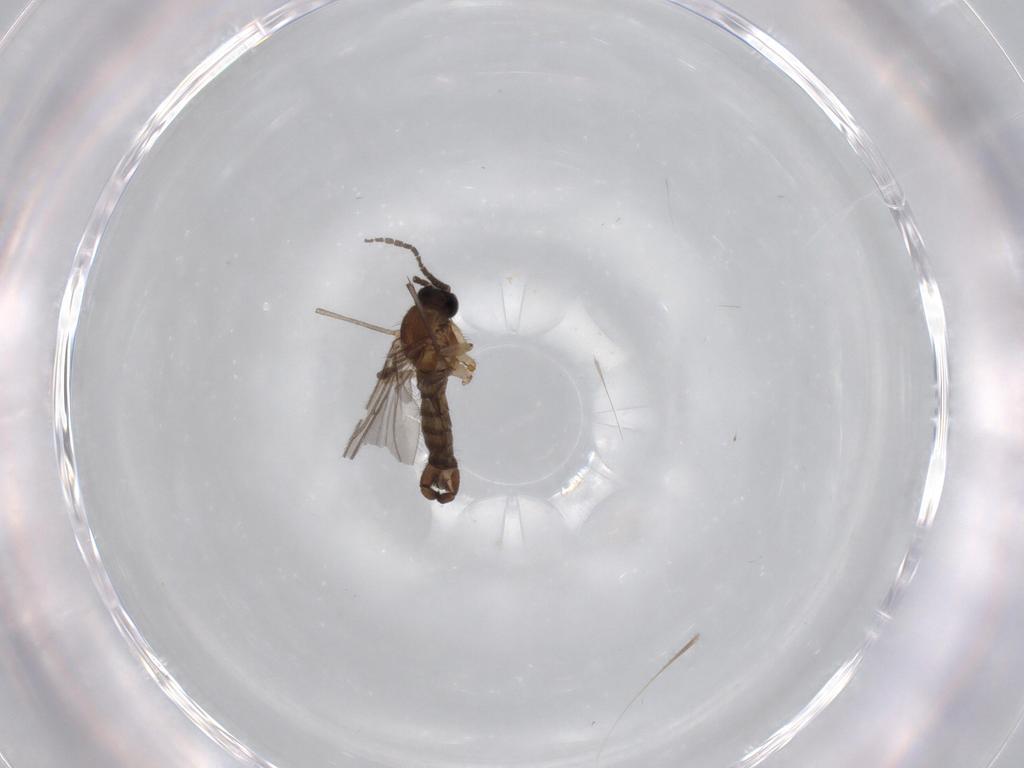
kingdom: Animalia
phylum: Arthropoda
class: Insecta
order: Diptera
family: Sciaridae
